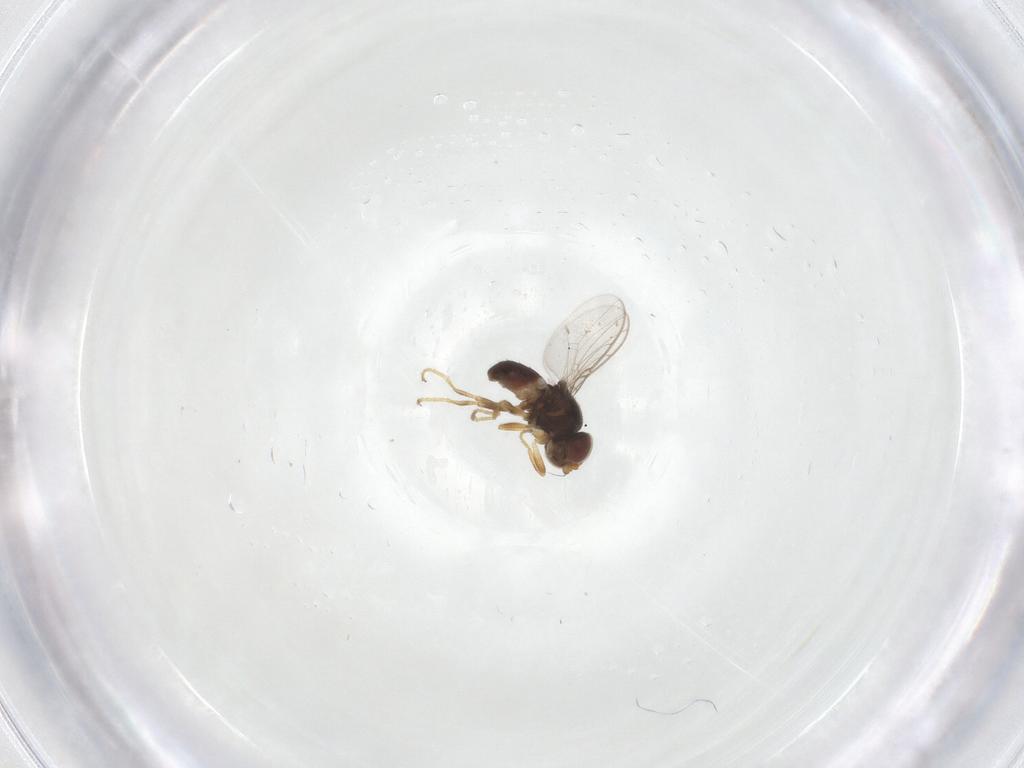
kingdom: Animalia
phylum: Arthropoda
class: Insecta
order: Diptera
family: Chloropidae
